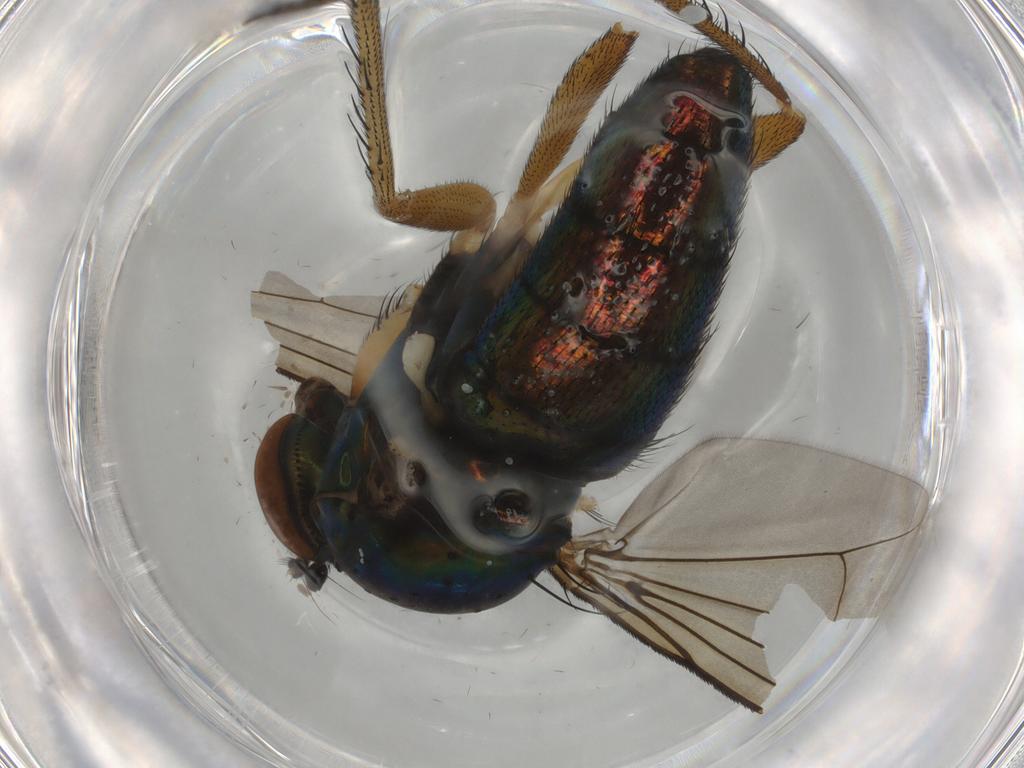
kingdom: Animalia
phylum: Arthropoda
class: Insecta
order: Diptera
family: Dolichopodidae
